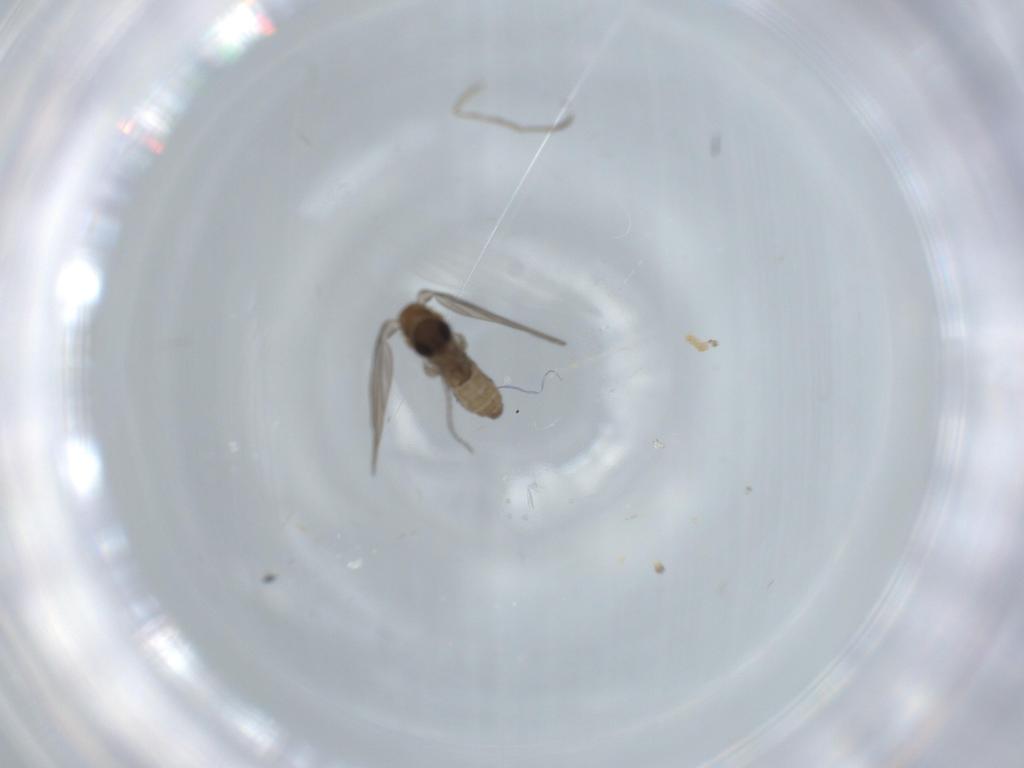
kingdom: Animalia
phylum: Arthropoda
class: Insecta
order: Diptera
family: Psychodidae
